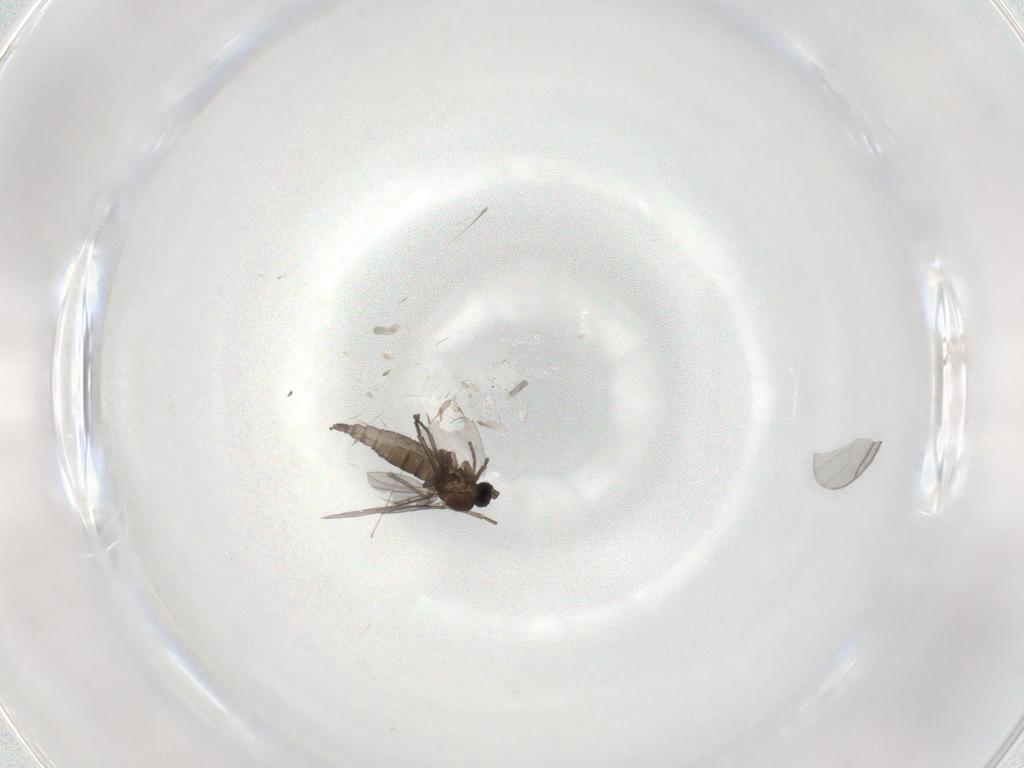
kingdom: Animalia
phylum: Arthropoda
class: Insecta
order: Diptera
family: Sciaridae
